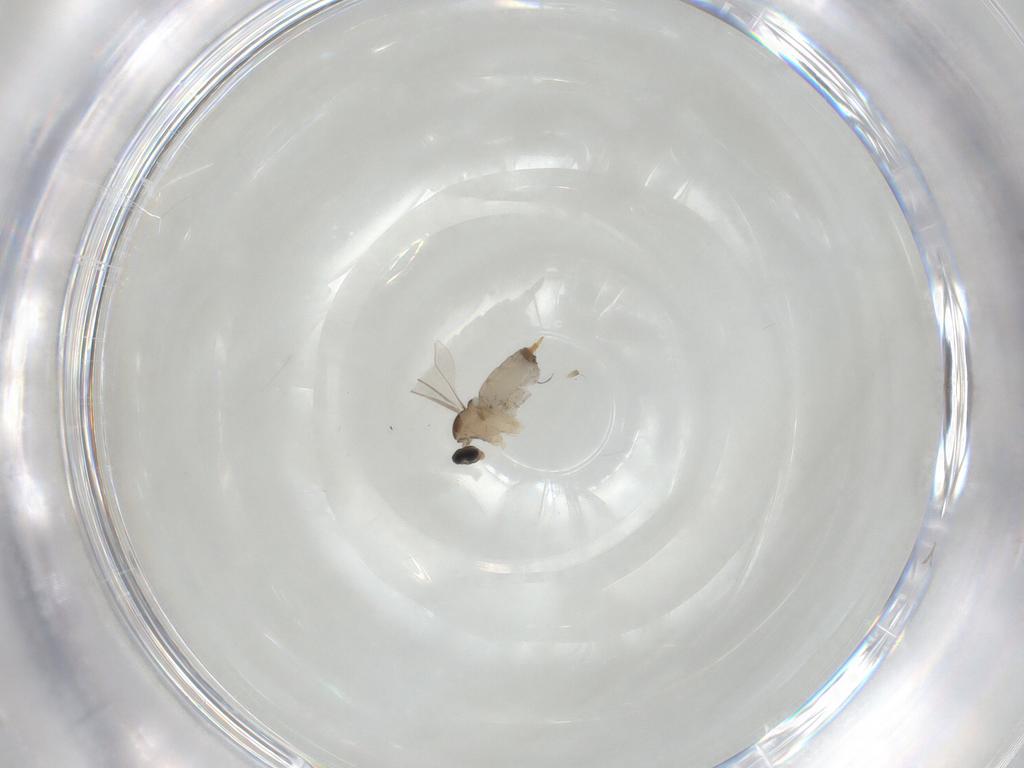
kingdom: Animalia
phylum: Arthropoda
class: Insecta
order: Diptera
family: Cecidomyiidae
